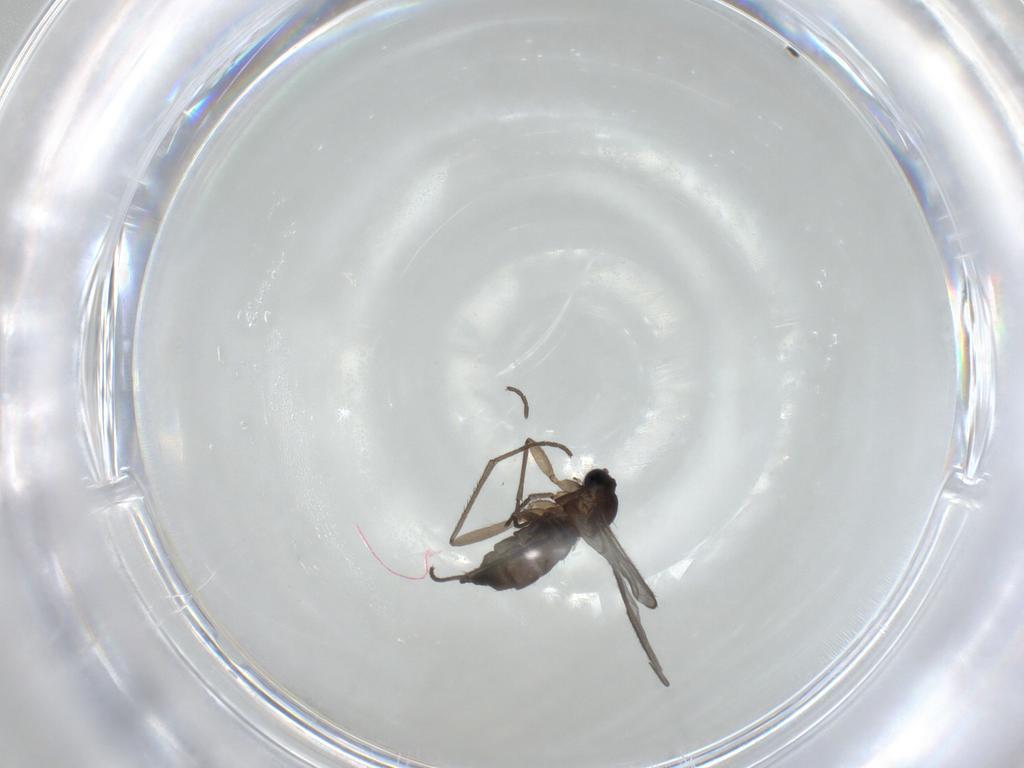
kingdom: Animalia
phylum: Arthropoda
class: Insecta
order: Diptera
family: Sciaridae
